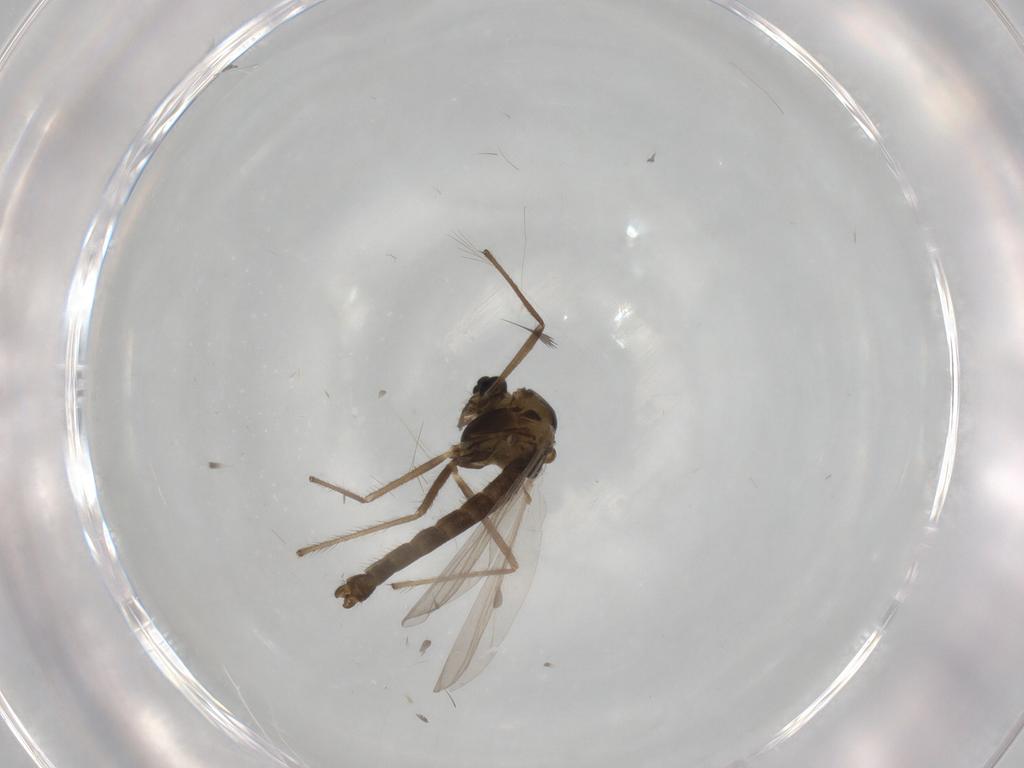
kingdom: Animalia
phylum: Arthropoda
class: Insecta
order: Diptera
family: Chironomidae
